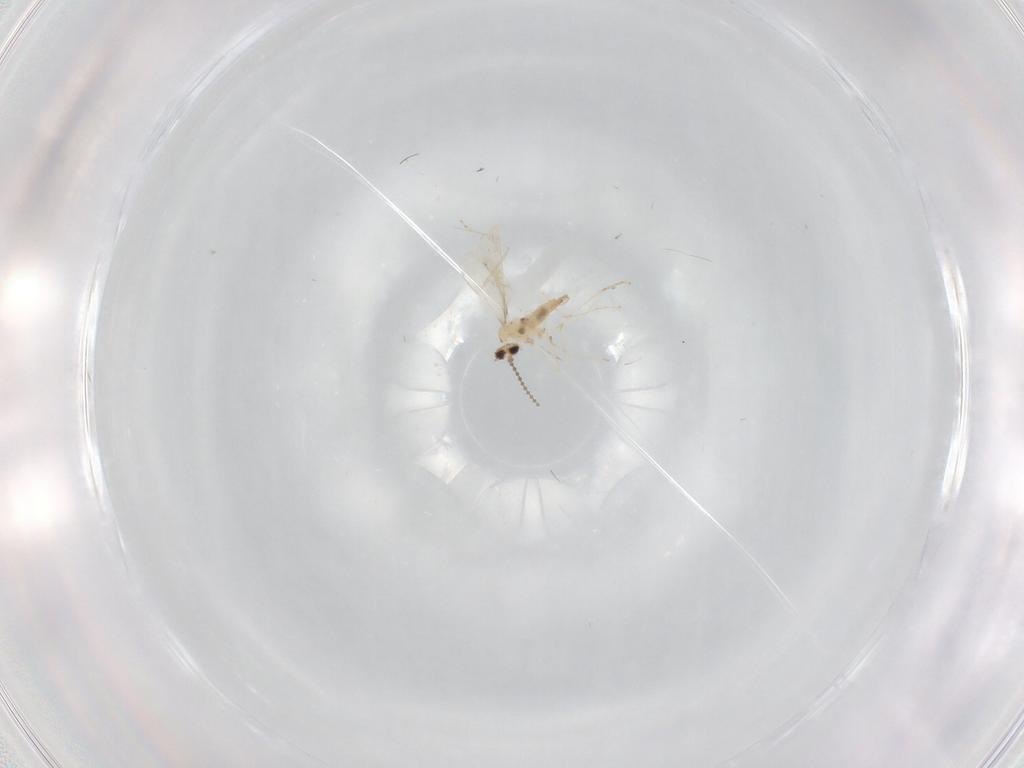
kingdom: Animalia
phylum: Arthropoda
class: Insecta
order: Diptera
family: Cecidomyiidae
